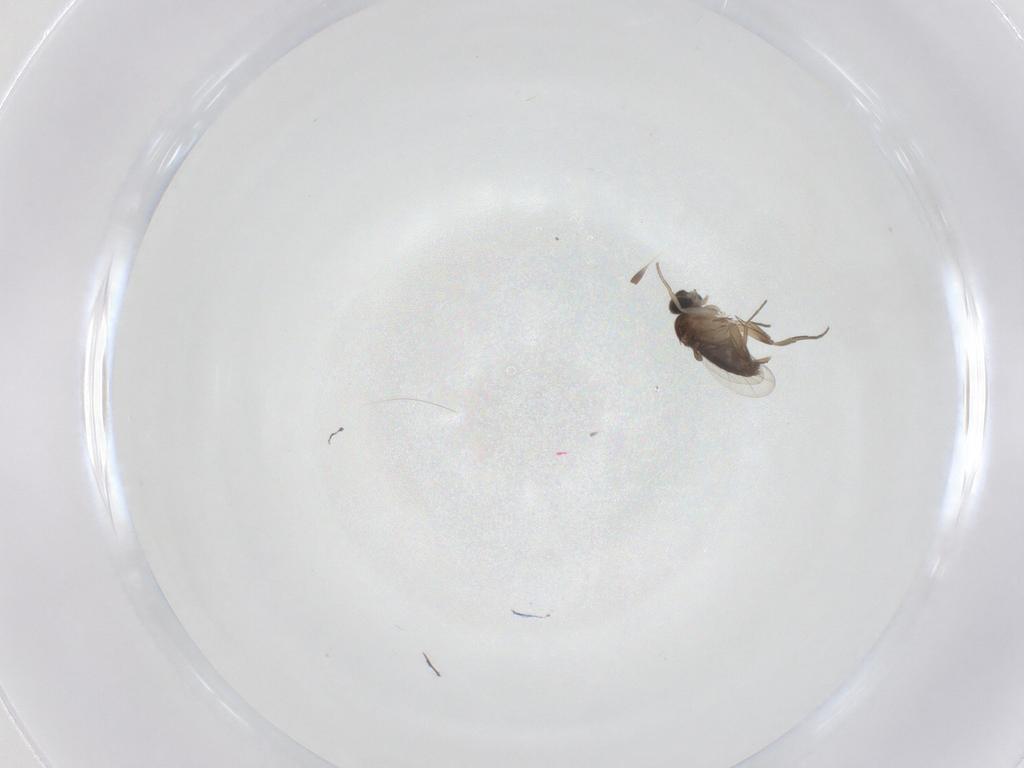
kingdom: Animalia
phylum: Arthropoda
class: Insecta
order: Diptera
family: Phoridae
